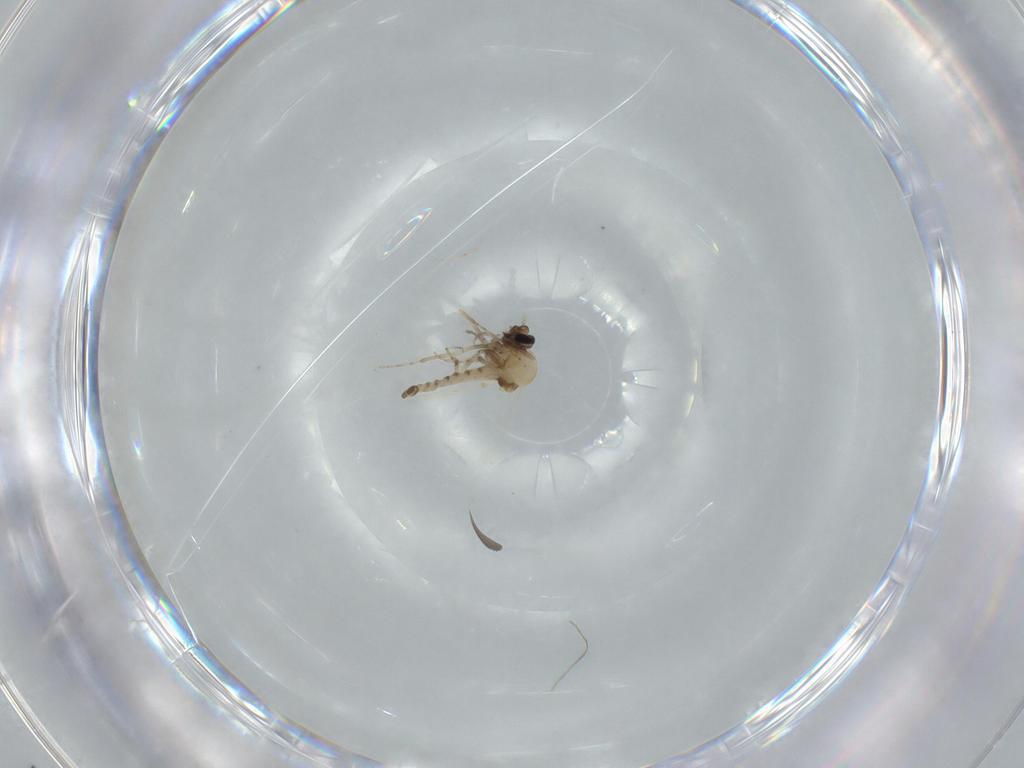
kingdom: Animalia
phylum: Arthropoda
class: Insecta
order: Diptera
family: Ceratopogonidae
